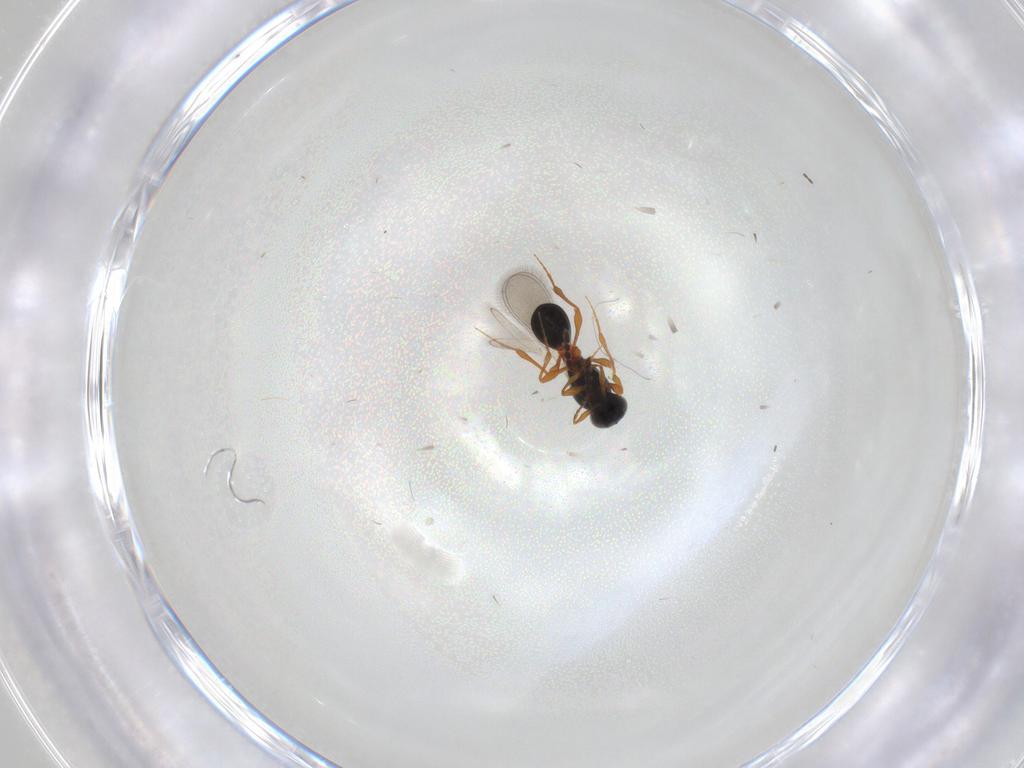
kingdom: Animalia
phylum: Arthropoda
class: Insecta
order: Hymenoptera
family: Platygastridae
